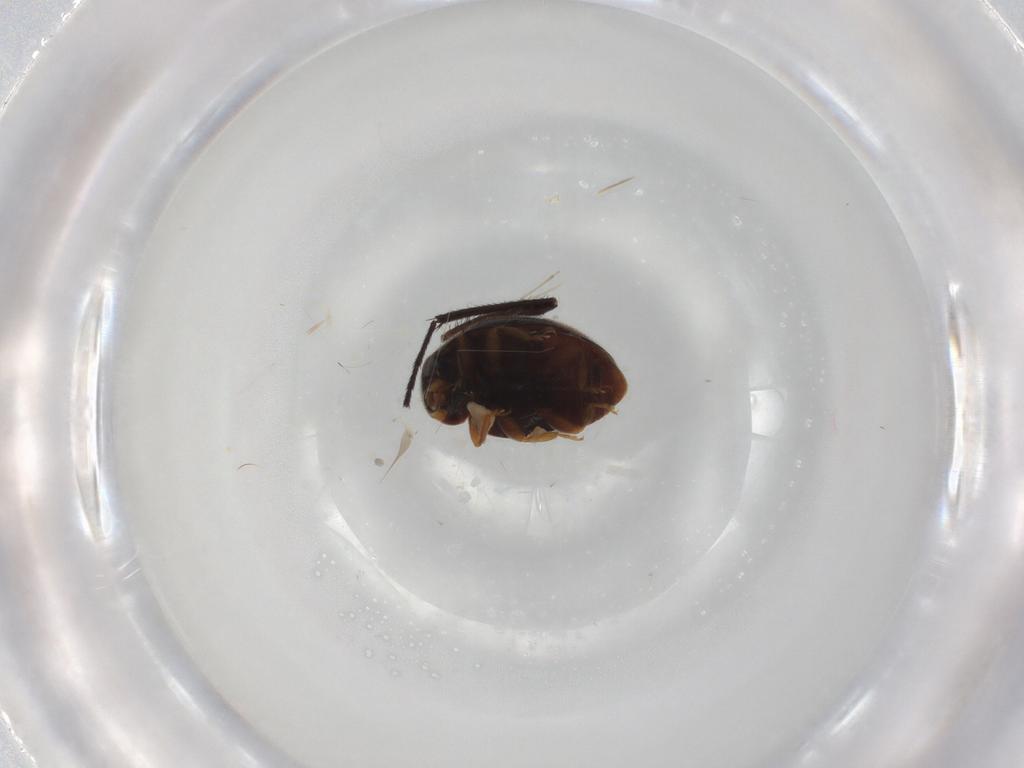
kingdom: Animalia
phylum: Arthropoda
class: Insecta
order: Coleoptera
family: Coccinellidae
